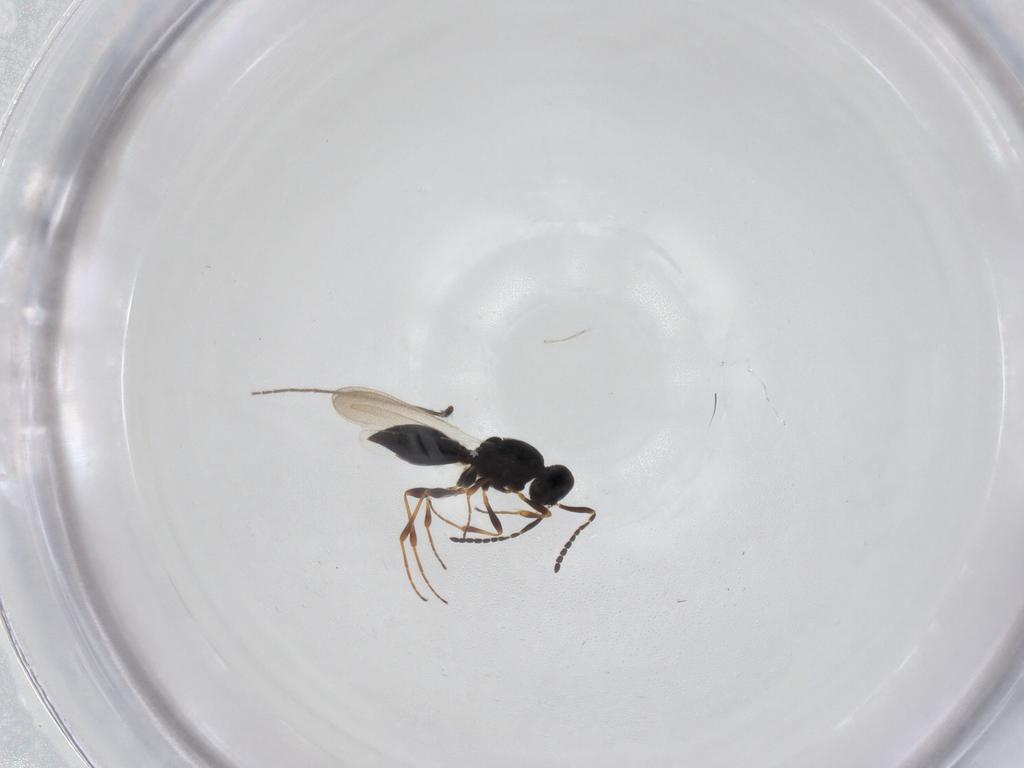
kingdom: Animalia
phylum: Arthropoda
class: Insecta
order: Hymenoptera
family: Platygastridae
